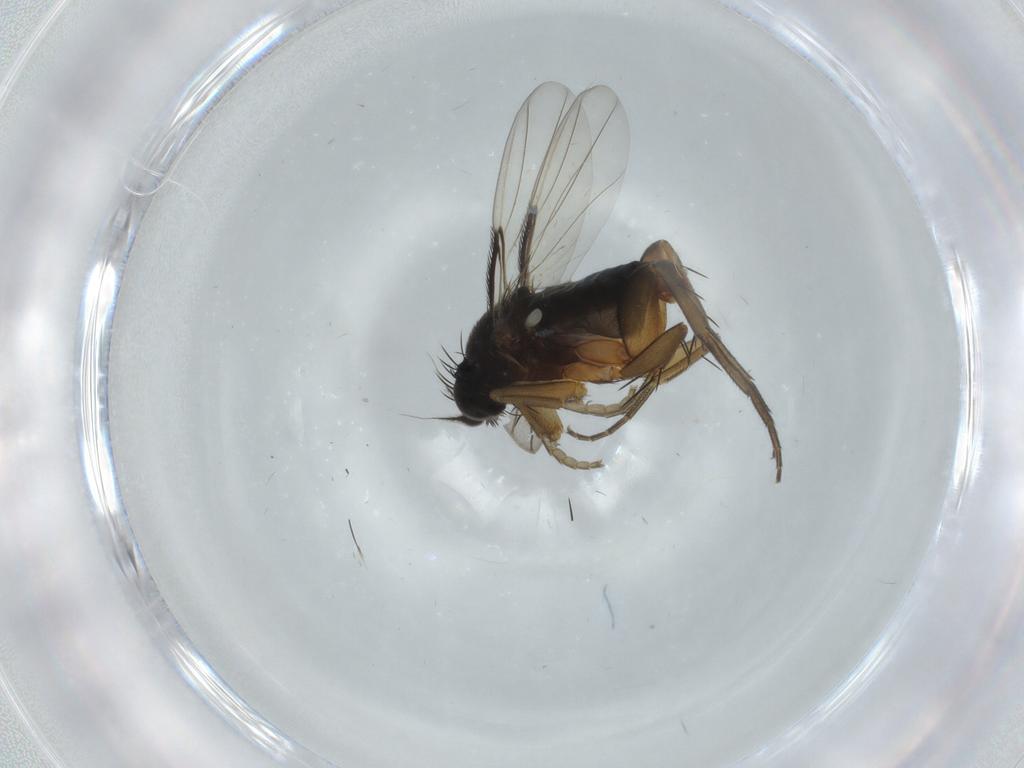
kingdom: Animalia
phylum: Arthropoda
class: Insecta
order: Diptera
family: Phoridae
